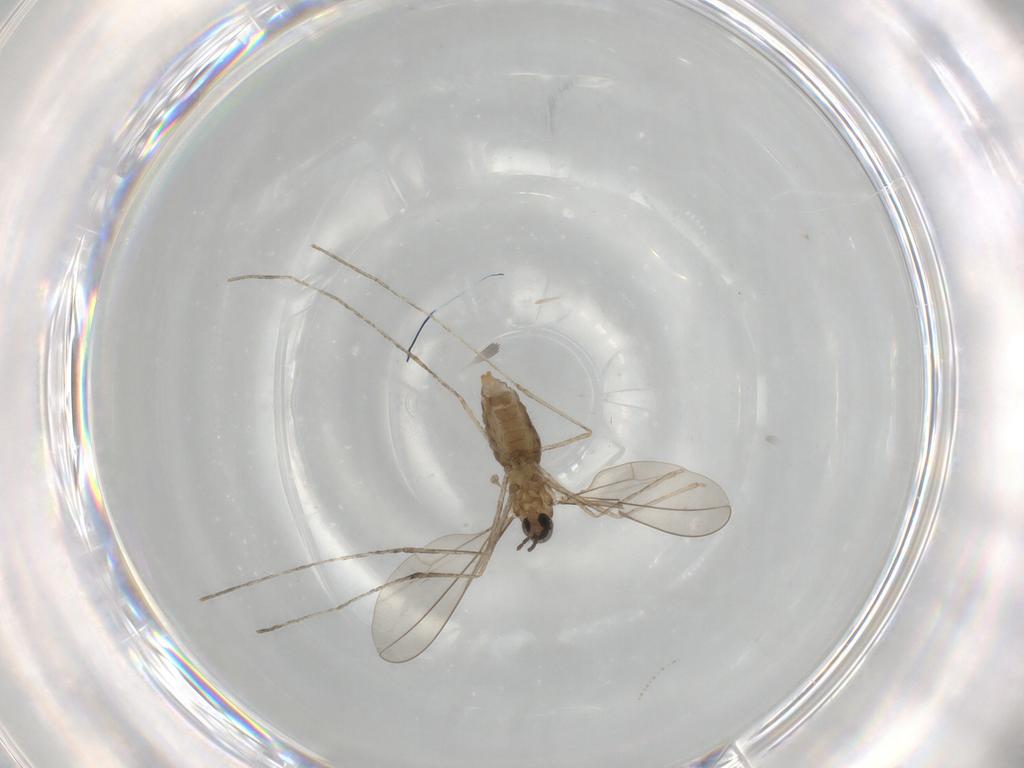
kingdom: Animalia
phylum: Arthropoda
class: Insecta
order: Diptera
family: Cecidomyiidae
